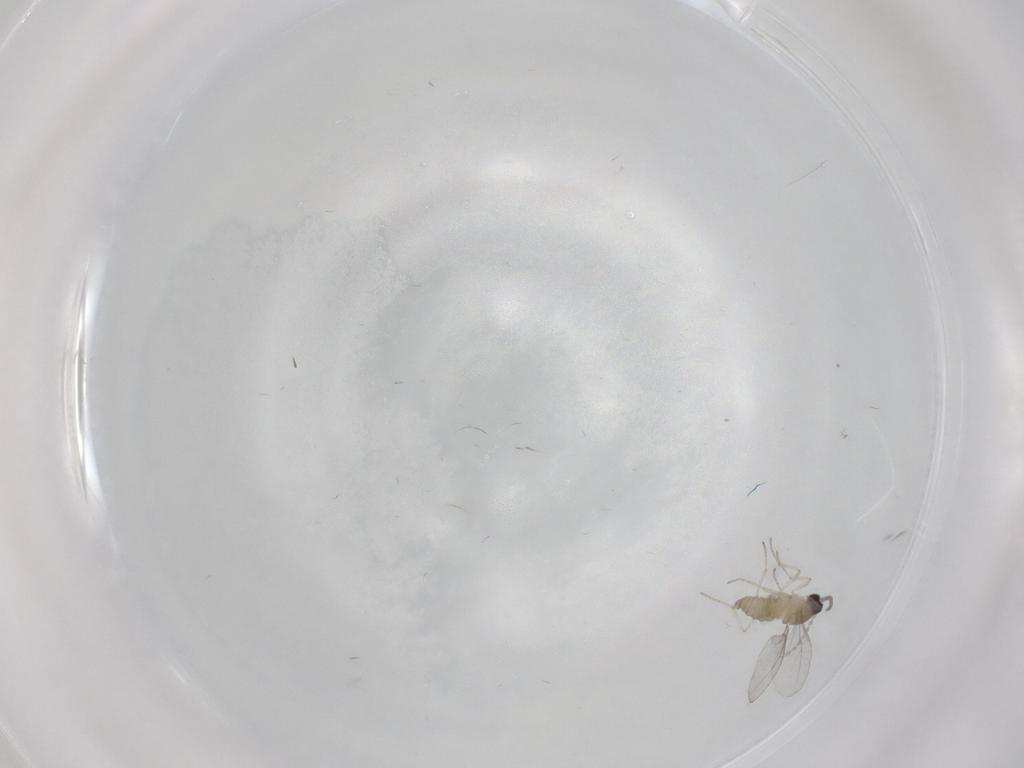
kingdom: Animalia
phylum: Arthropoda
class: Insecta
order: Diptera
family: Cecidomyiidae
